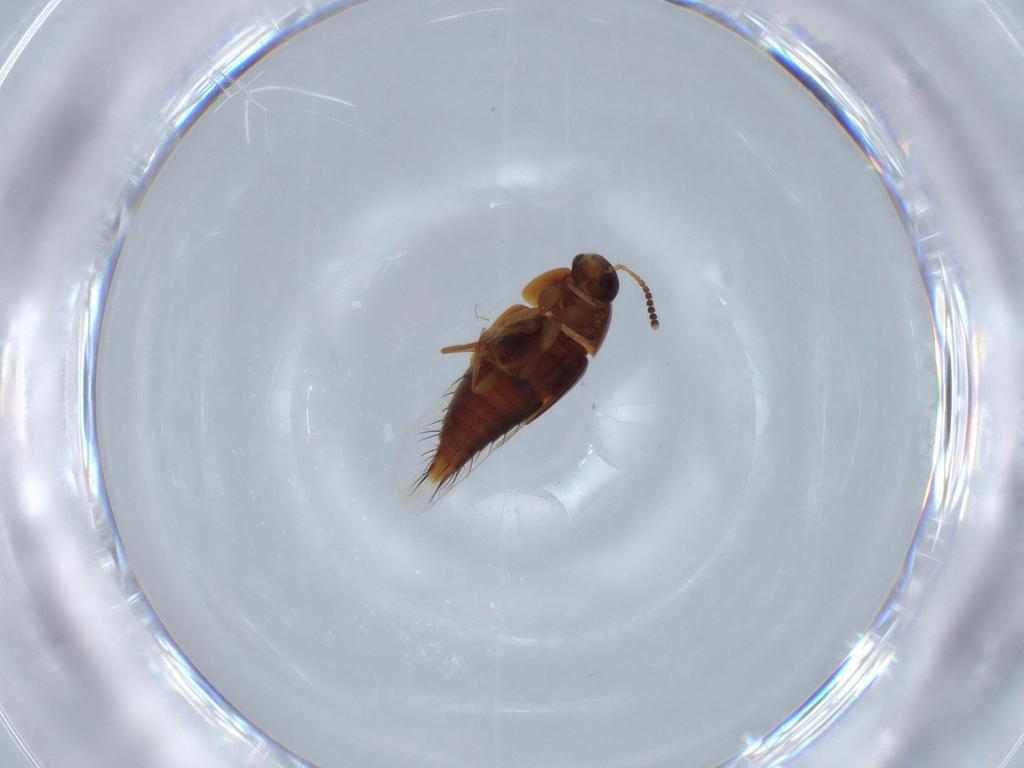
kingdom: Animalia
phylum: Arthropoda
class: Insecta
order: Coleoptera
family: Staphylinidae
